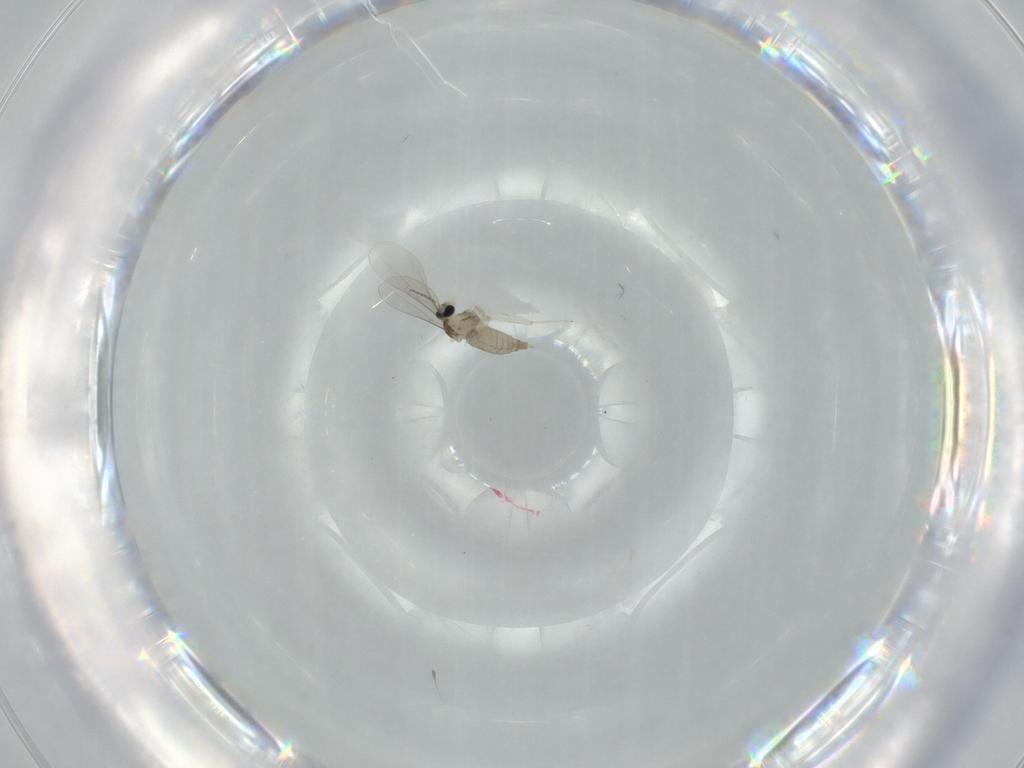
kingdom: Animalia
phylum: Arthropoda
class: Insecta
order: Diptera
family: Cecidomyiidae
